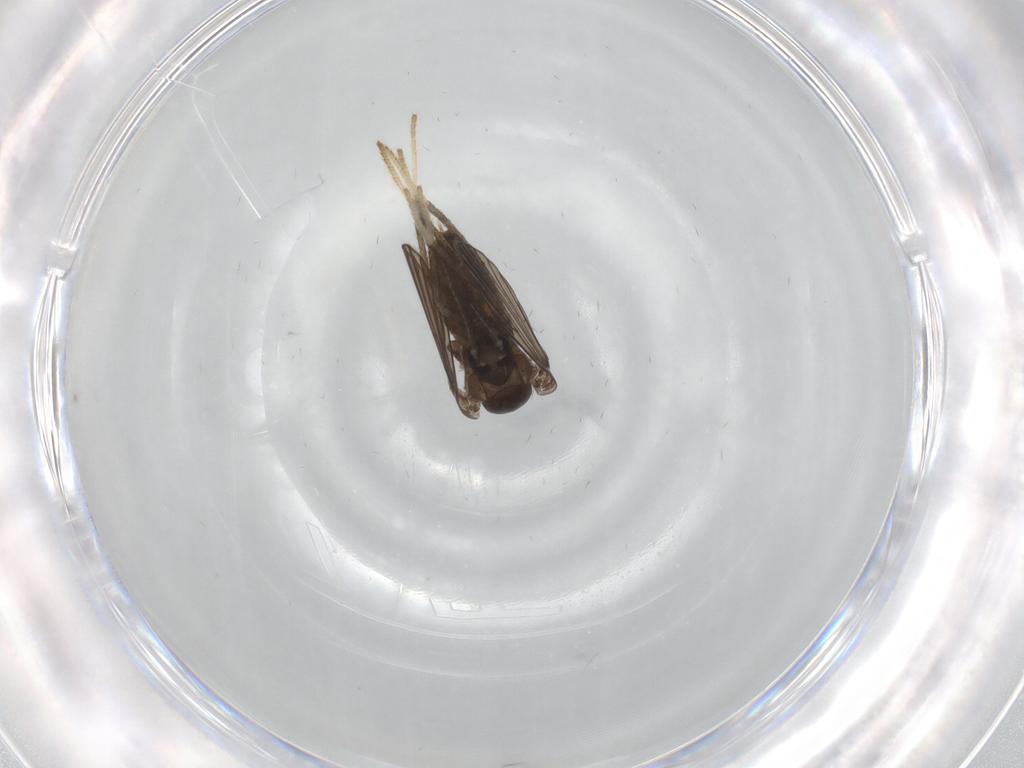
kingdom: Animalia
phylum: Arthropoda
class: Insecta
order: Diptera
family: Psychodidae
